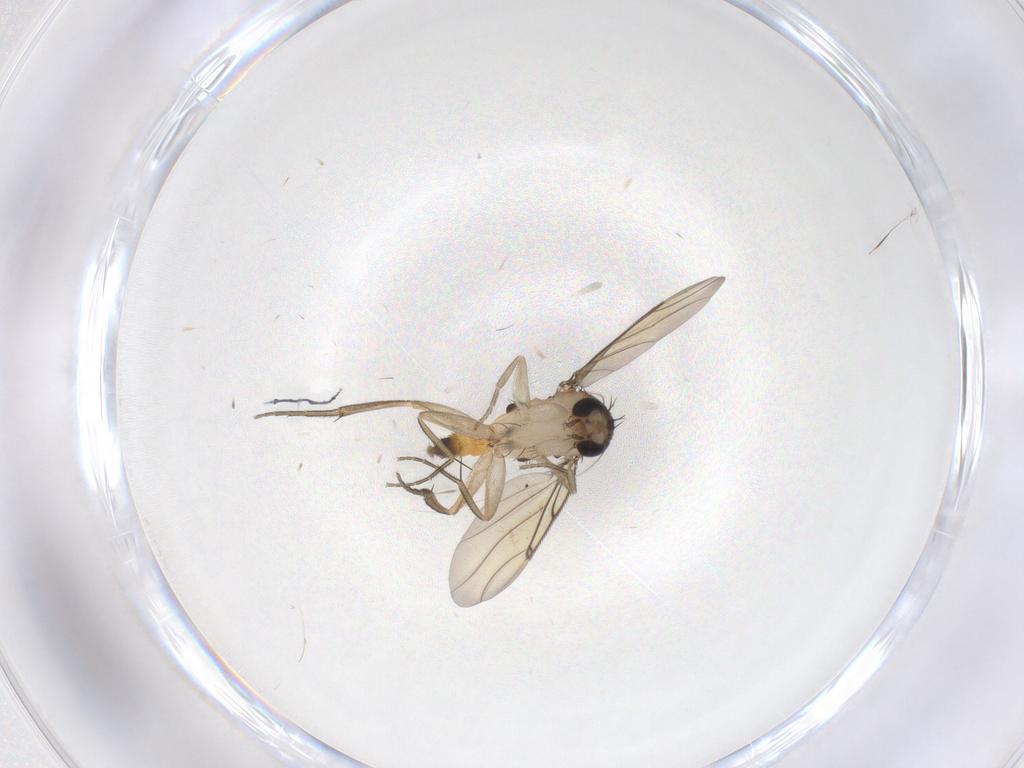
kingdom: Animalia
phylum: Arthropoda
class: Insecta
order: Diptera
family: Phoridae
